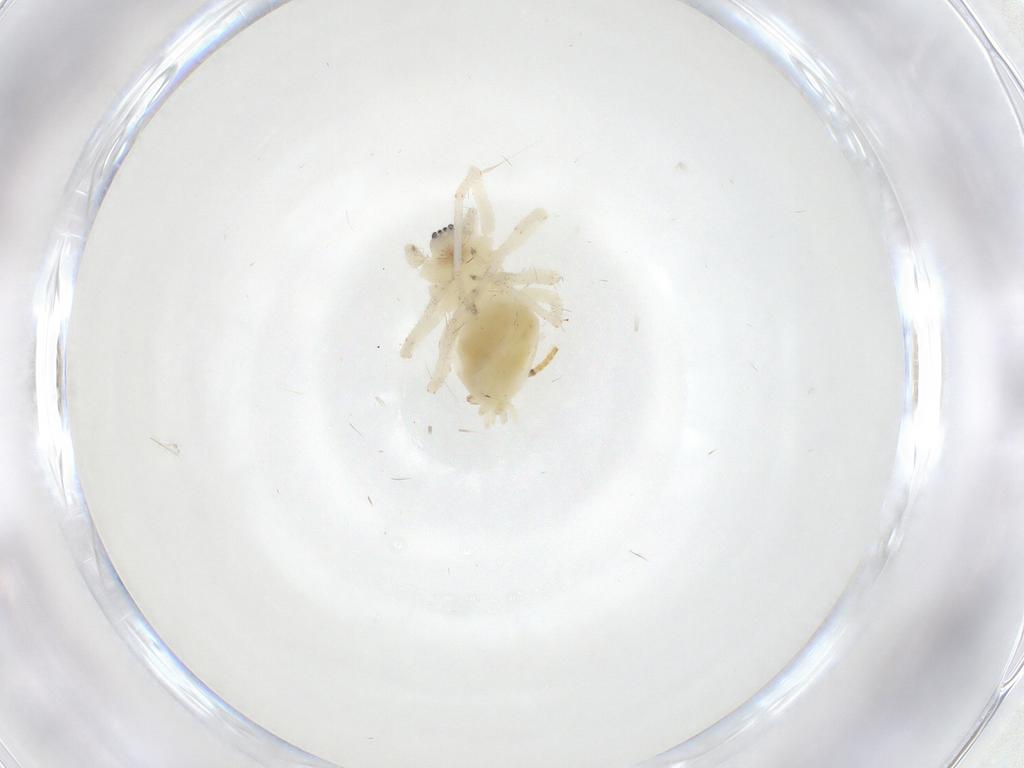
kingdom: Animalia
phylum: Arthropoda
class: Arachnida
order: Araneae
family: Anyphaenidae
